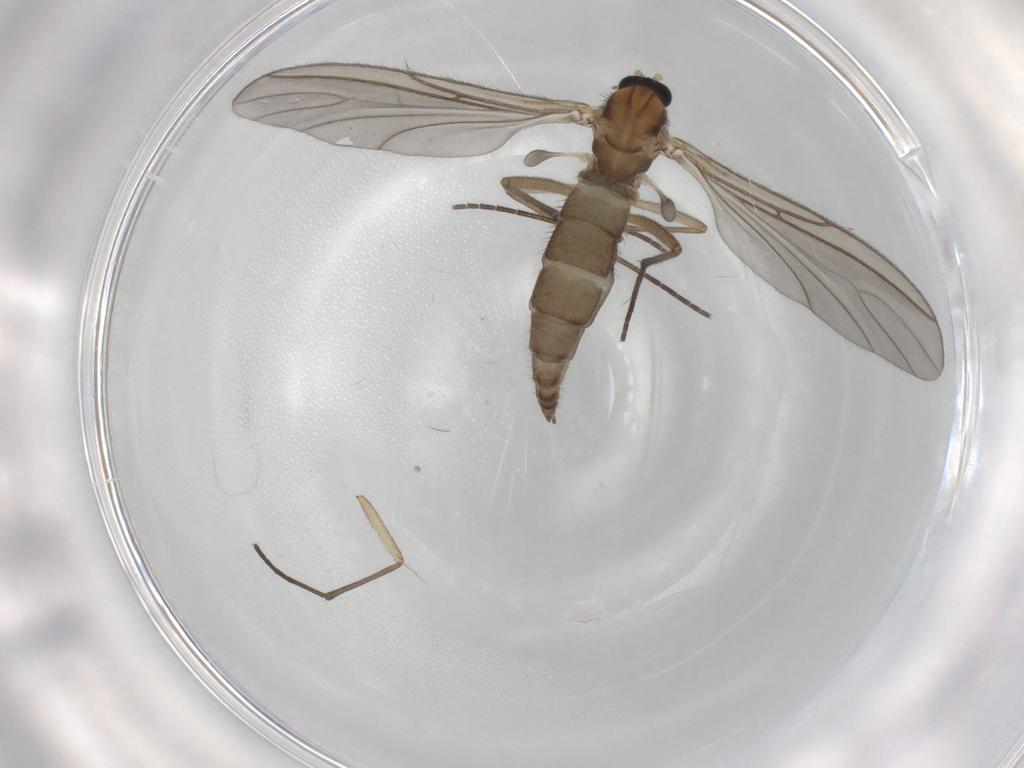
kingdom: Animalia
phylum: Arthropoda
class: Insecta
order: Diptera
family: Sciaridae
